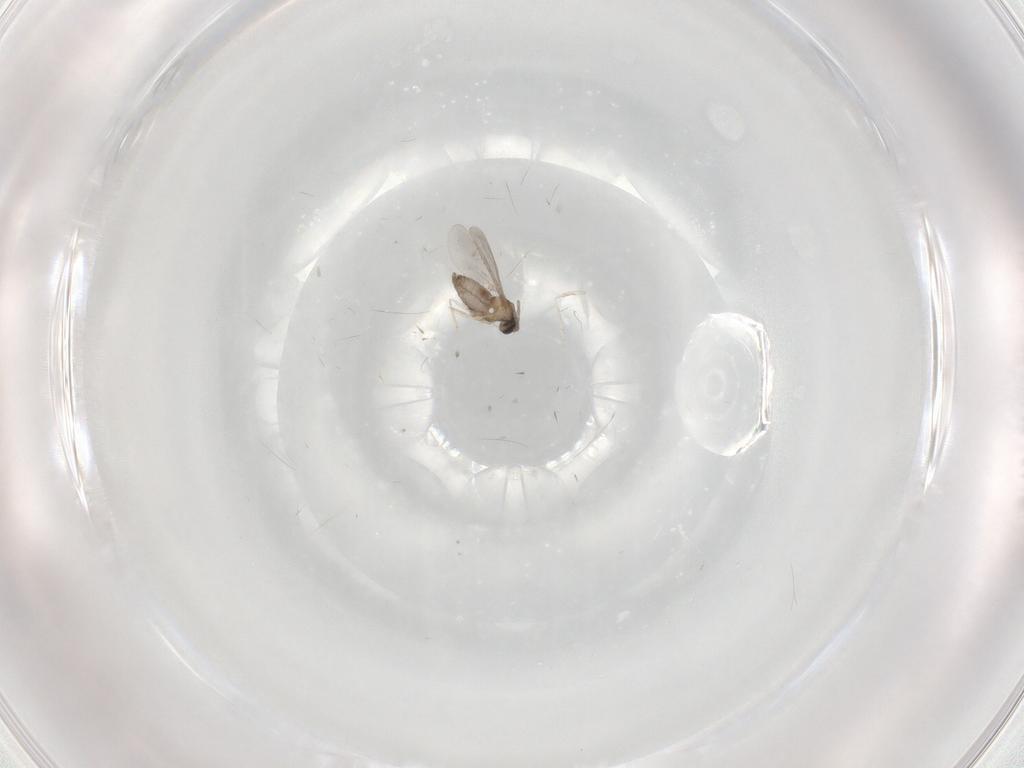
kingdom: Animalia
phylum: Arthropoda
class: Insecta
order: Diptera
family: Cecidomyiidae
